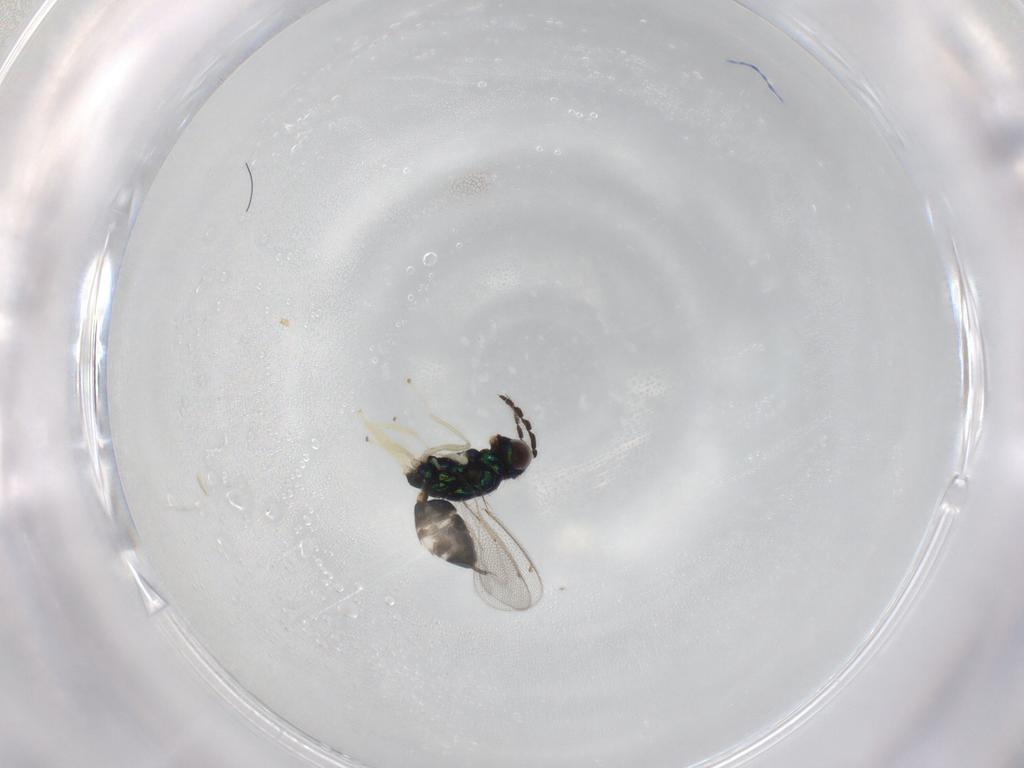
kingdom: Animalia
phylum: Arthropoda
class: Insecta
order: Hymenoptera
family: Eulophidae
